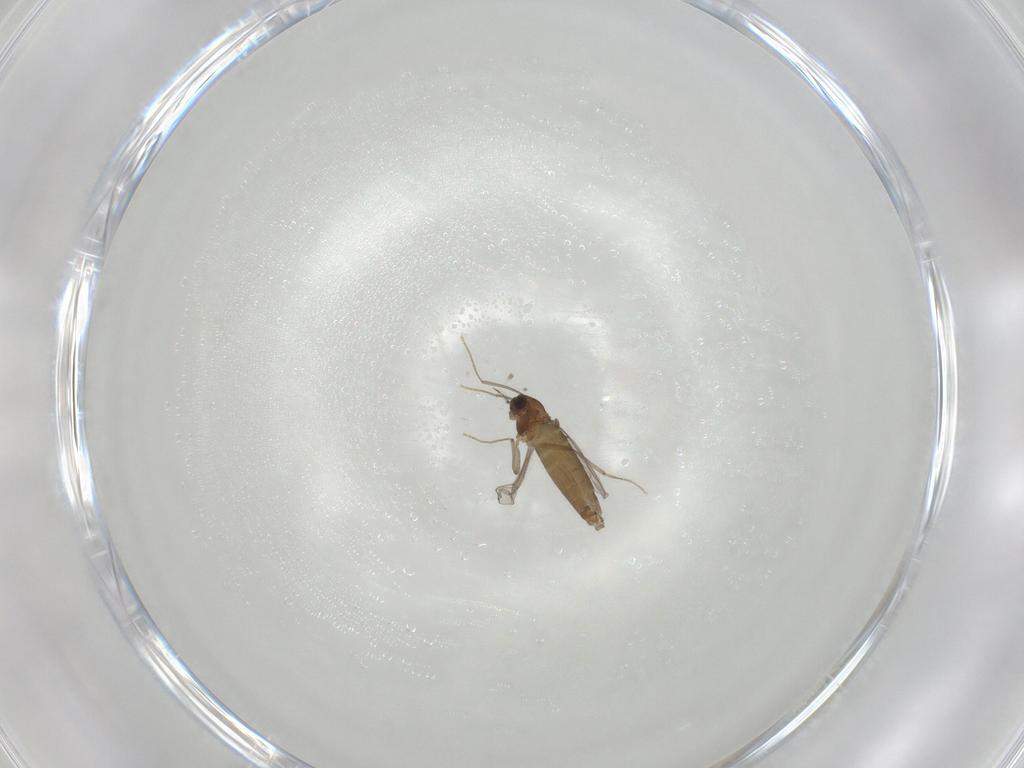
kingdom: Animalia
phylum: Arthropoda
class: Insecta
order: Diptera
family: Chironomidae
